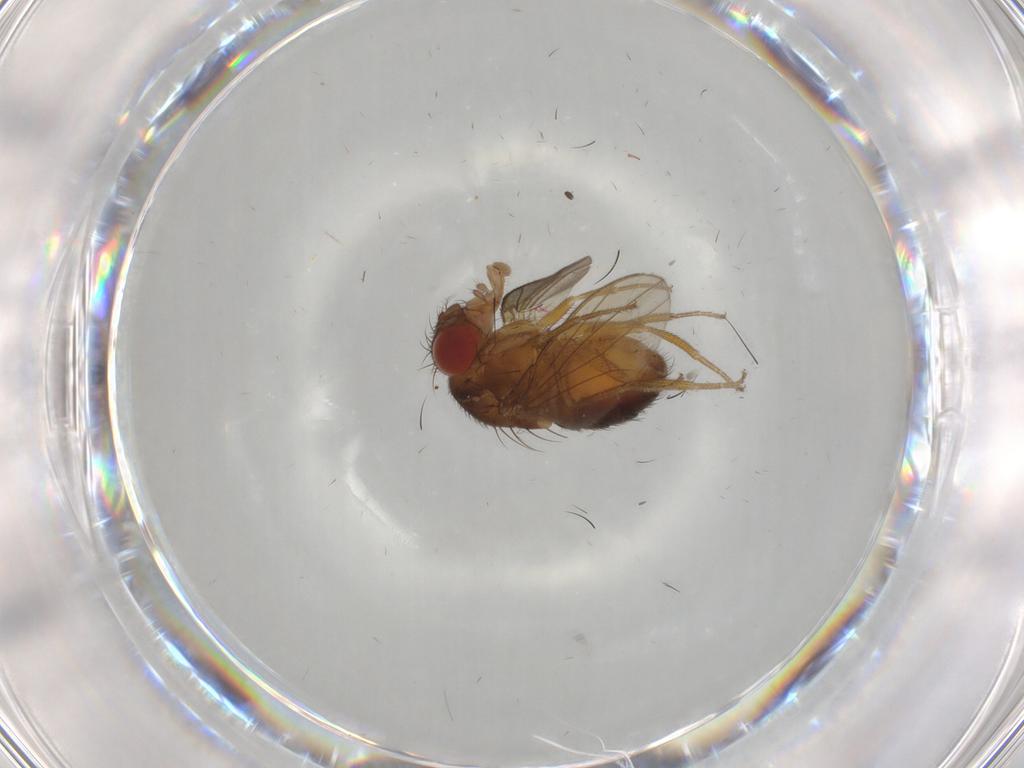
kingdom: Animalia
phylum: Arthropoda
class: Insecta
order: Diptera
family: Drosophilidae
